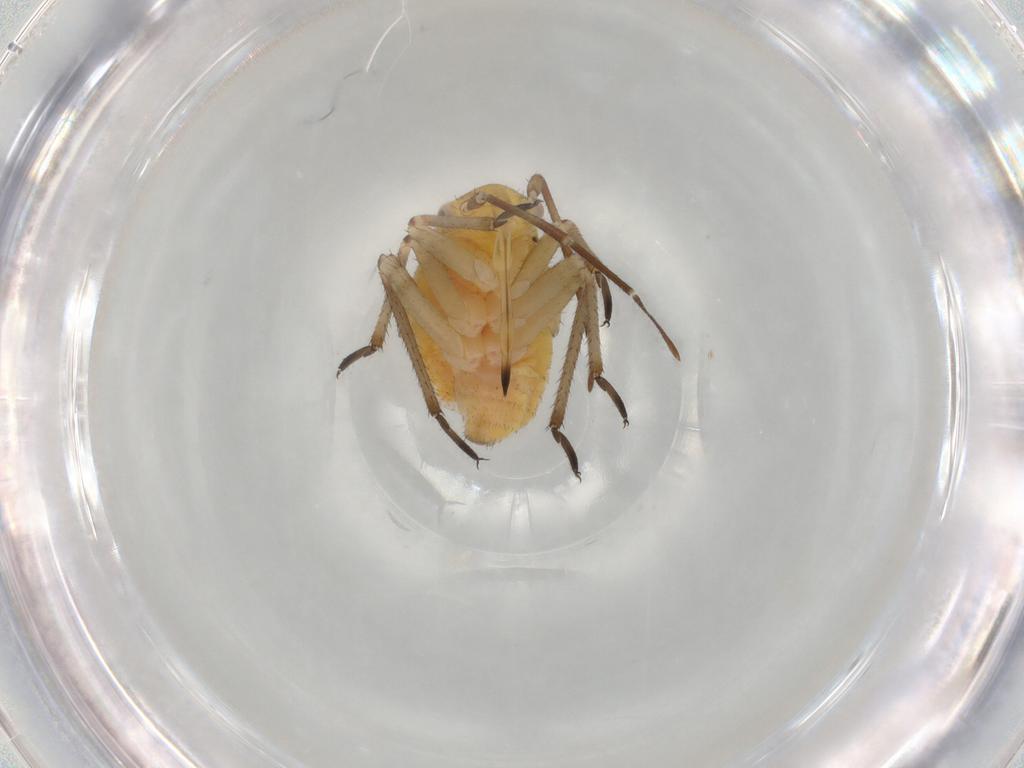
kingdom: Animalia
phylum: Arthropoda
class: Insecta
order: Hemiptera
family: Miridae
